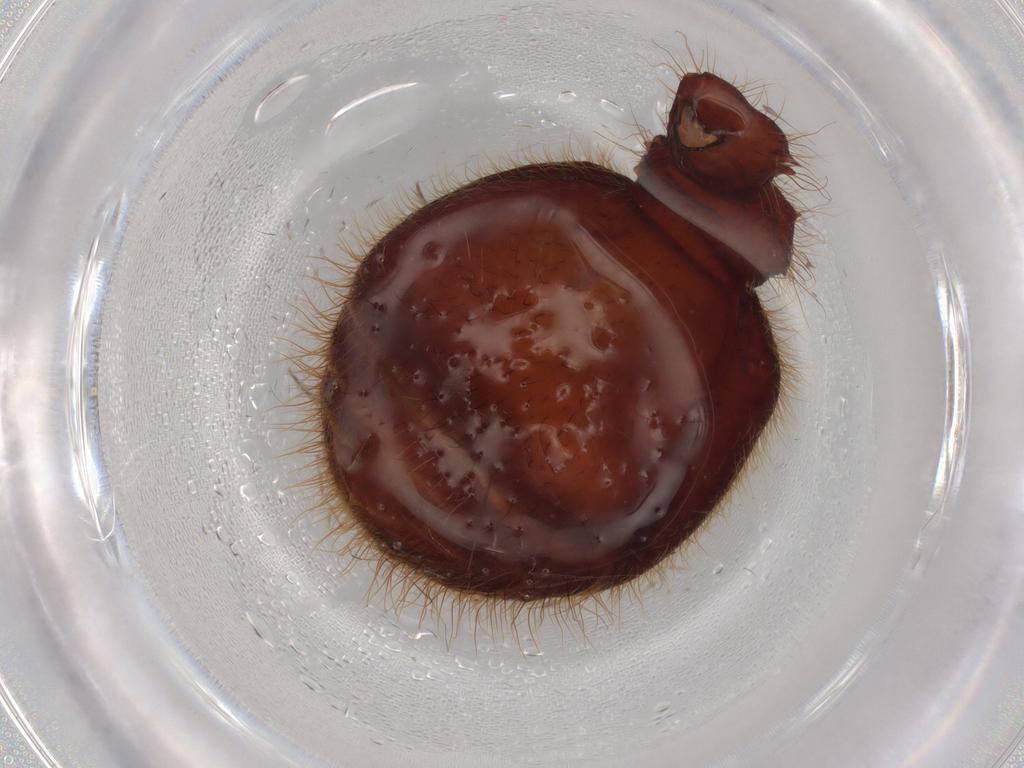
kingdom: Animalia
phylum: Arthropoda
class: Insecta
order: Hymenoptera
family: Formicidae
